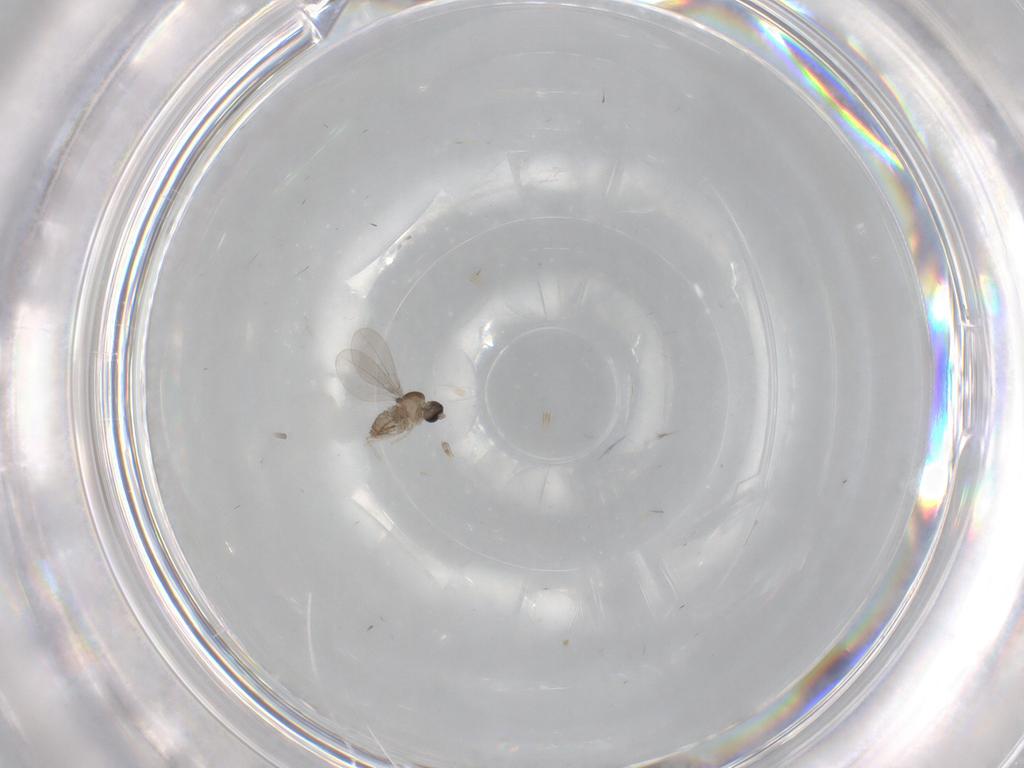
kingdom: Animalia
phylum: Arthropoda
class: Insecta
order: Diptera
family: Cecidomyiidae
